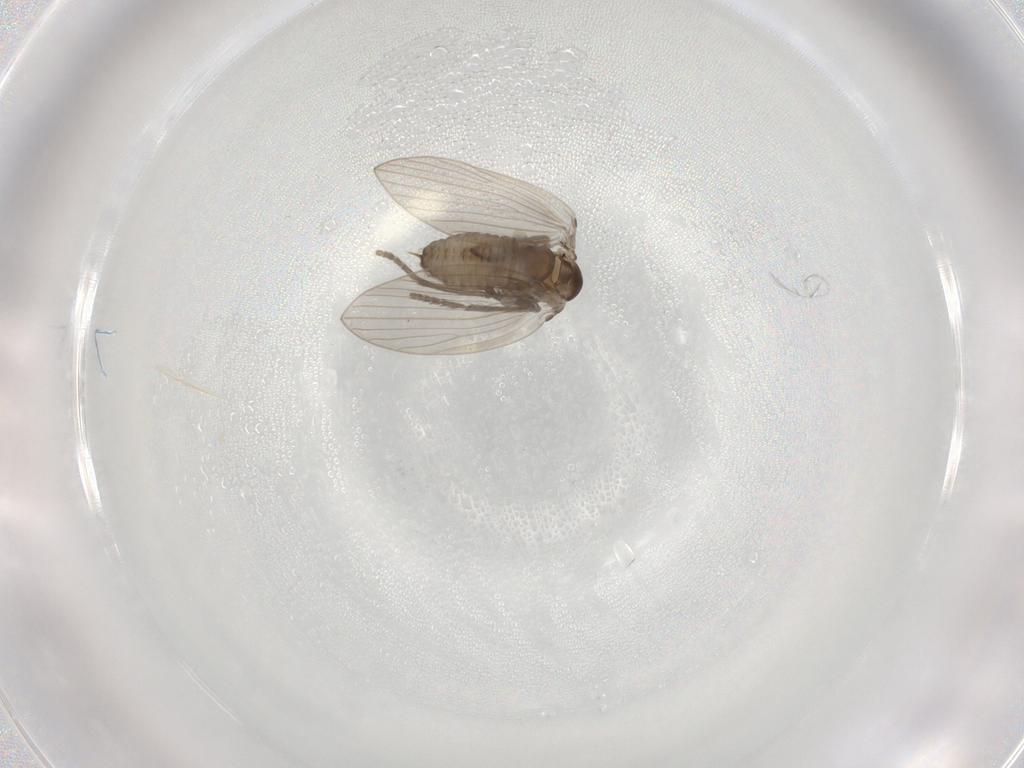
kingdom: Animalia
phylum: Arthropoda
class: Insecta
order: Diptera
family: Psychodidae
